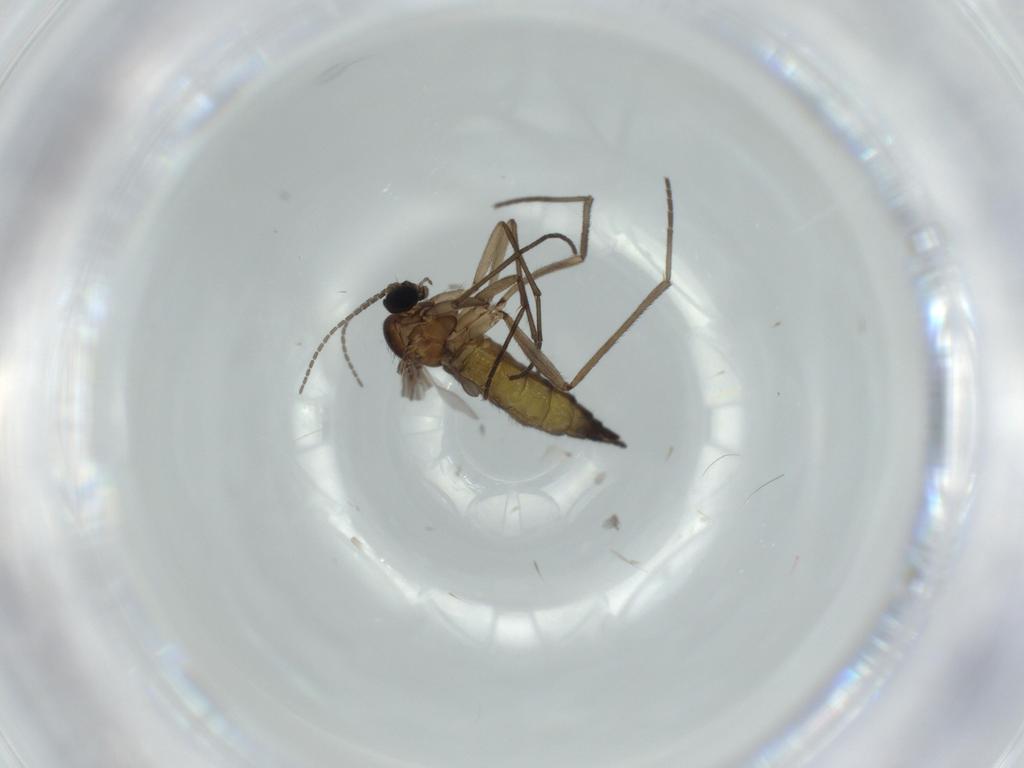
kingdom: Animalia
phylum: Arthropoda
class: Insecta
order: Diptera
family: Sciaridae
